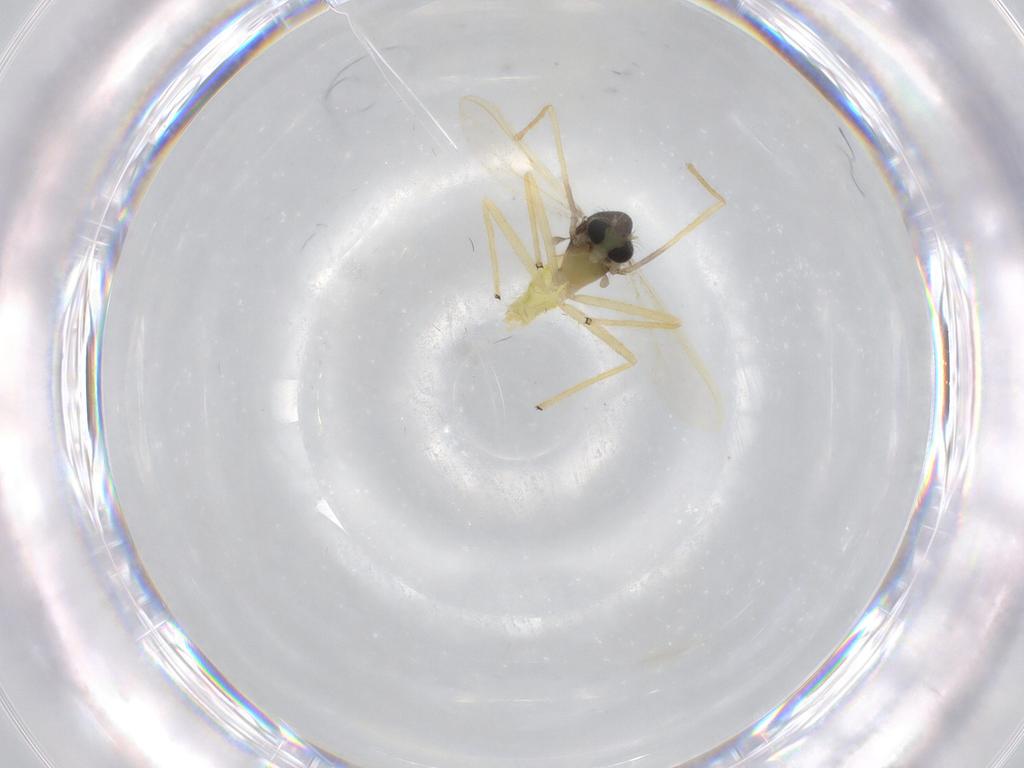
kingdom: Animalia
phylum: Arthropoda
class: Insecta
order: Diptera
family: Chironomidae
